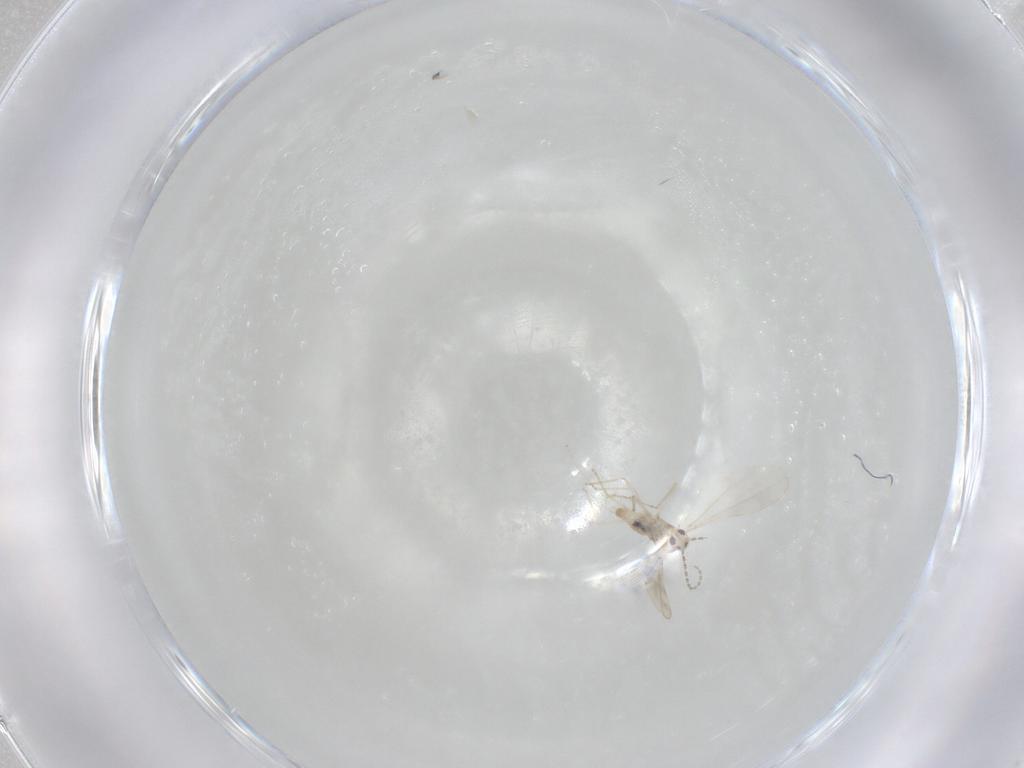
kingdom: Animalia
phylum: Arthropoda
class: Insecta
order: Diptera
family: Cecidomyiidae
